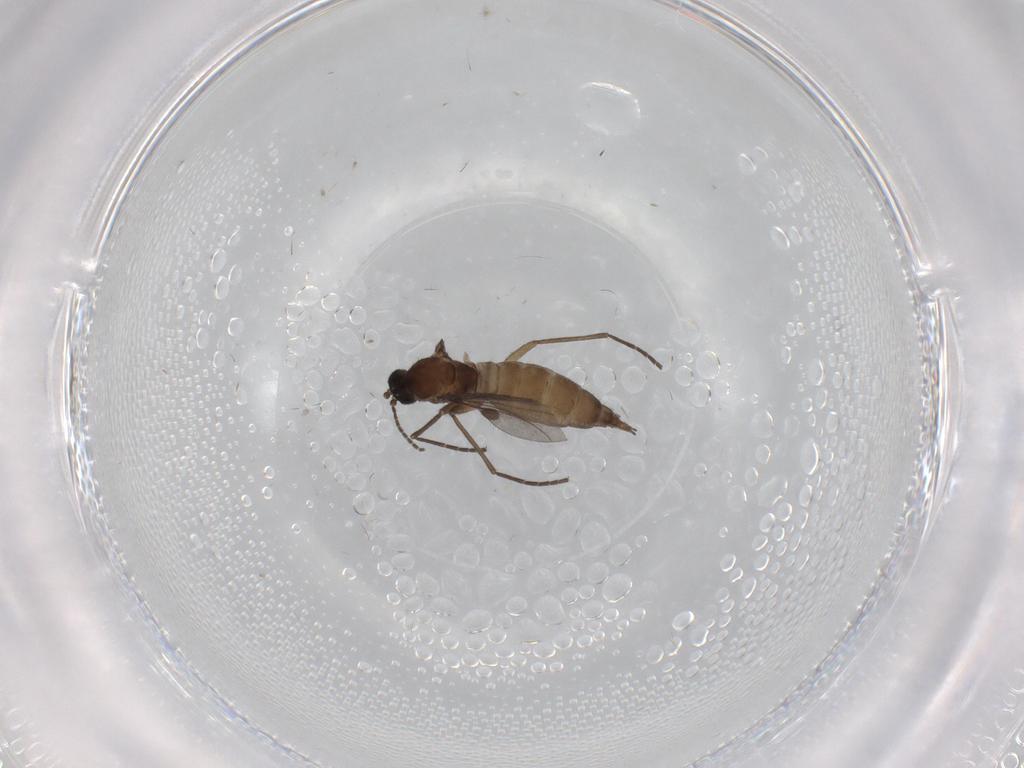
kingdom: Animalia
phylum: Arthropoda
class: Insecta
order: Diptera
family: Sciaridae
